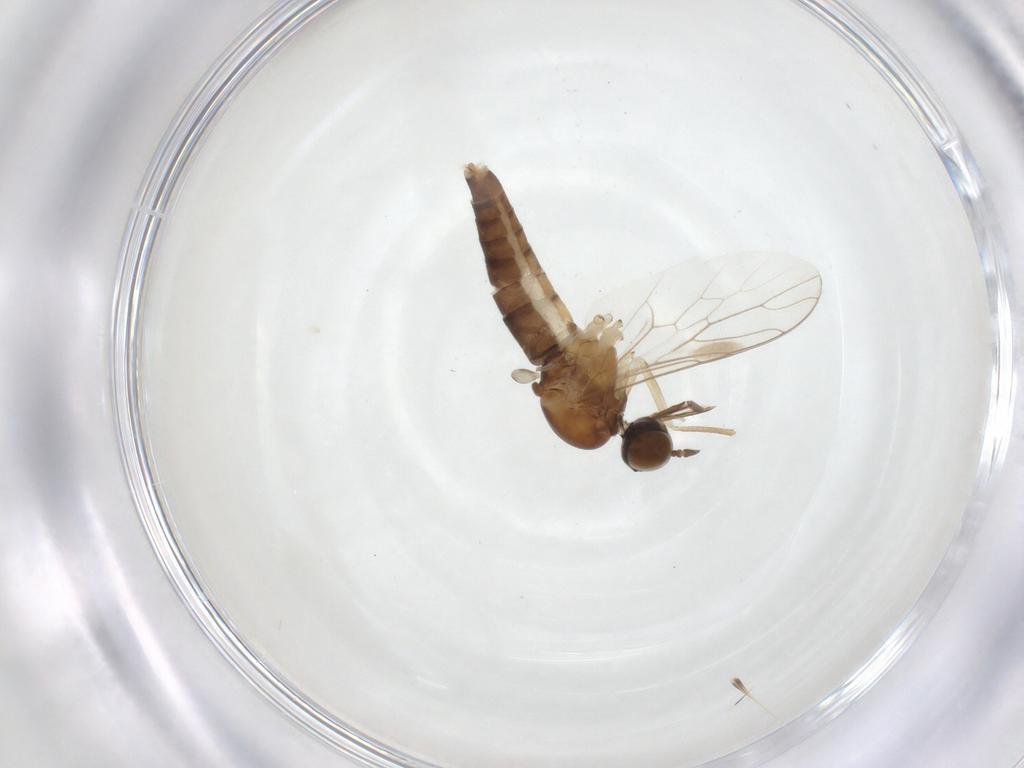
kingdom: Animalia
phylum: Arthropoda
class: Insecta
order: Diptera
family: Scenopinidae
